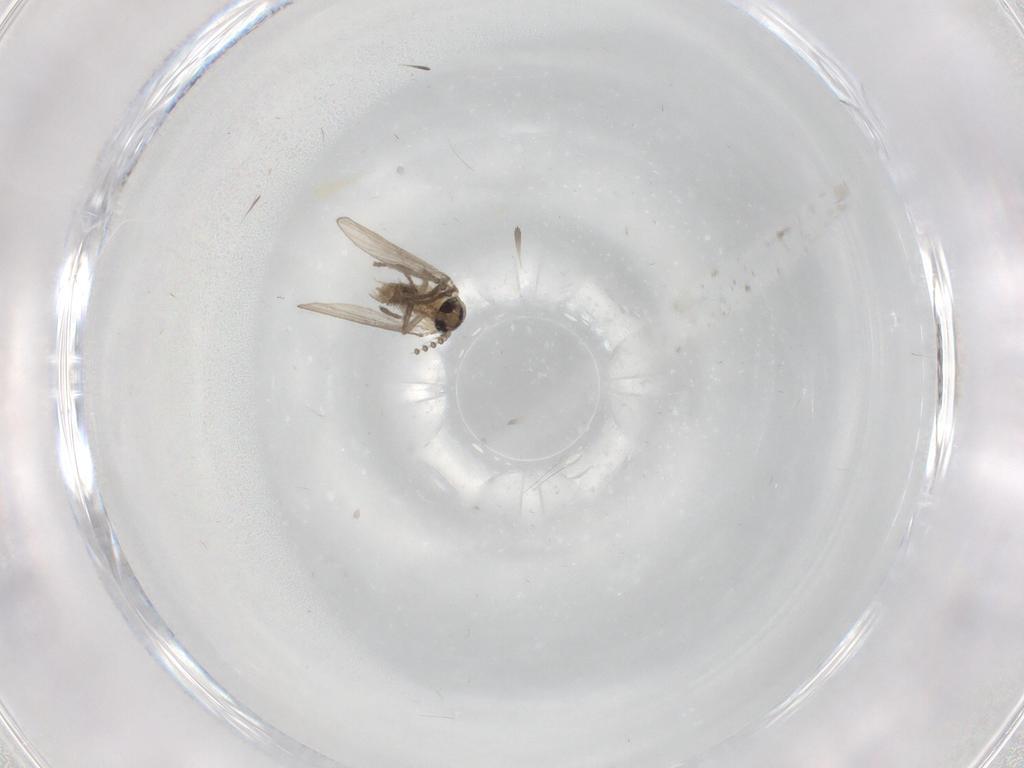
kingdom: Animalia
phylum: Arthropoda
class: Insecta
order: Diptera
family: Psychodidae
